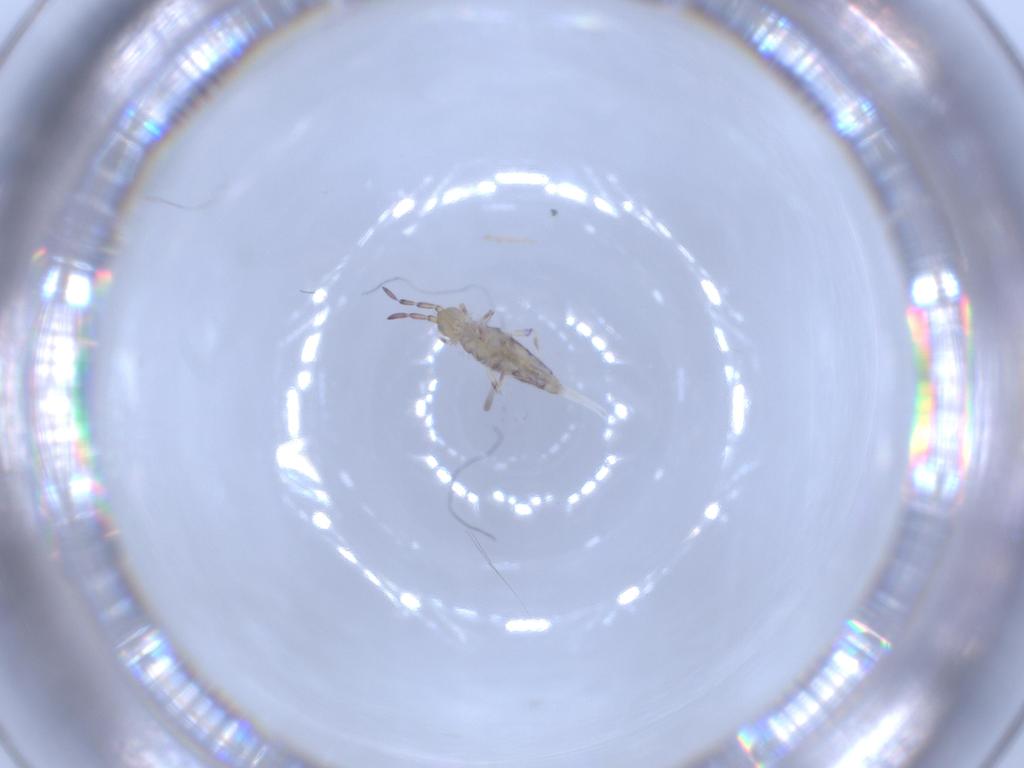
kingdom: Animalia
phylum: Arthropoda
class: Collembola
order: Entomobryomorpha
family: Entomobryidae
